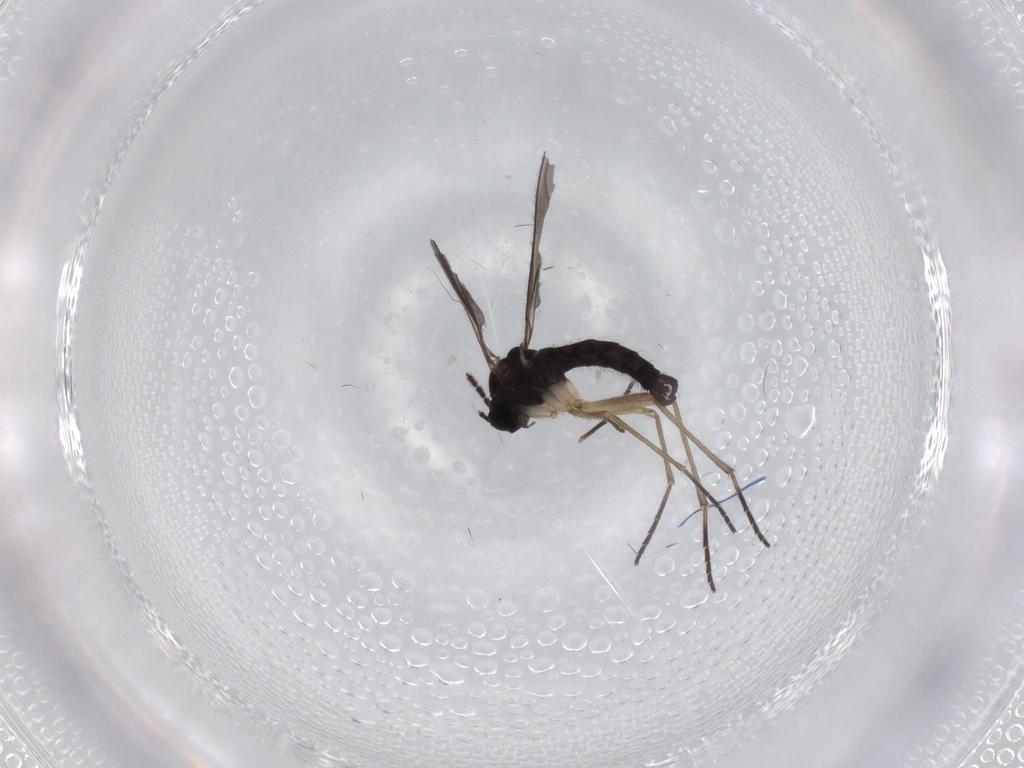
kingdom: Animalia
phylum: Arthropoda
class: Insecta
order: Diptera
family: Sciaridae
